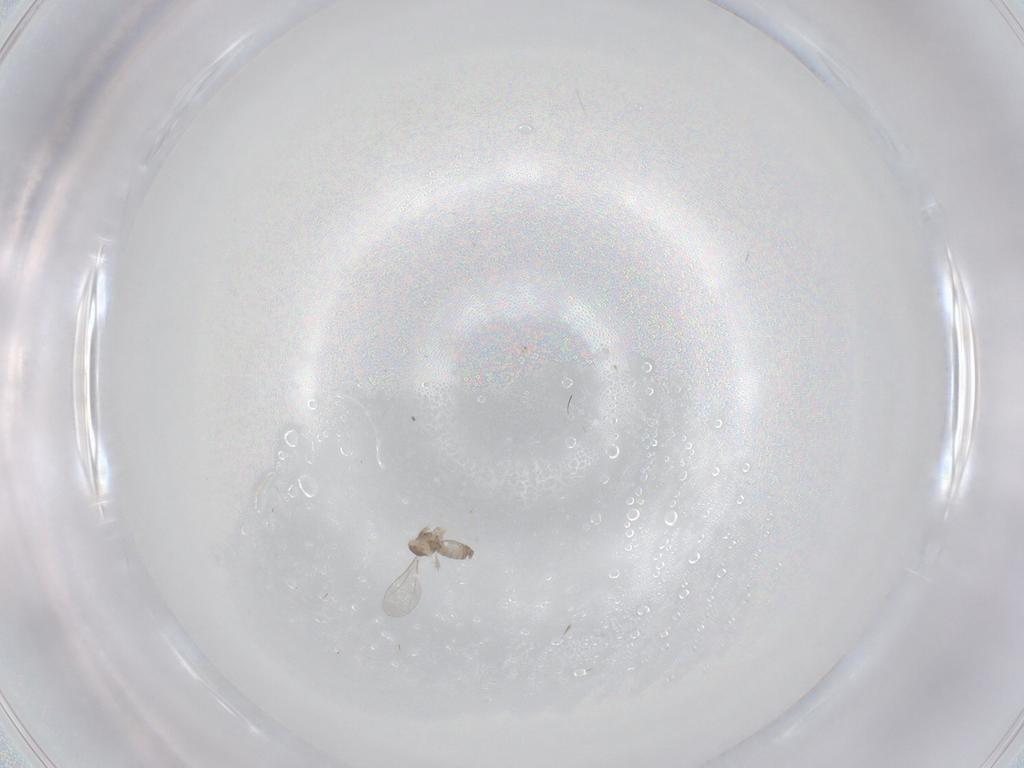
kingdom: Animalia
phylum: Arthropoda
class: Insecta
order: Diptera
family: Cecidomyiidae
